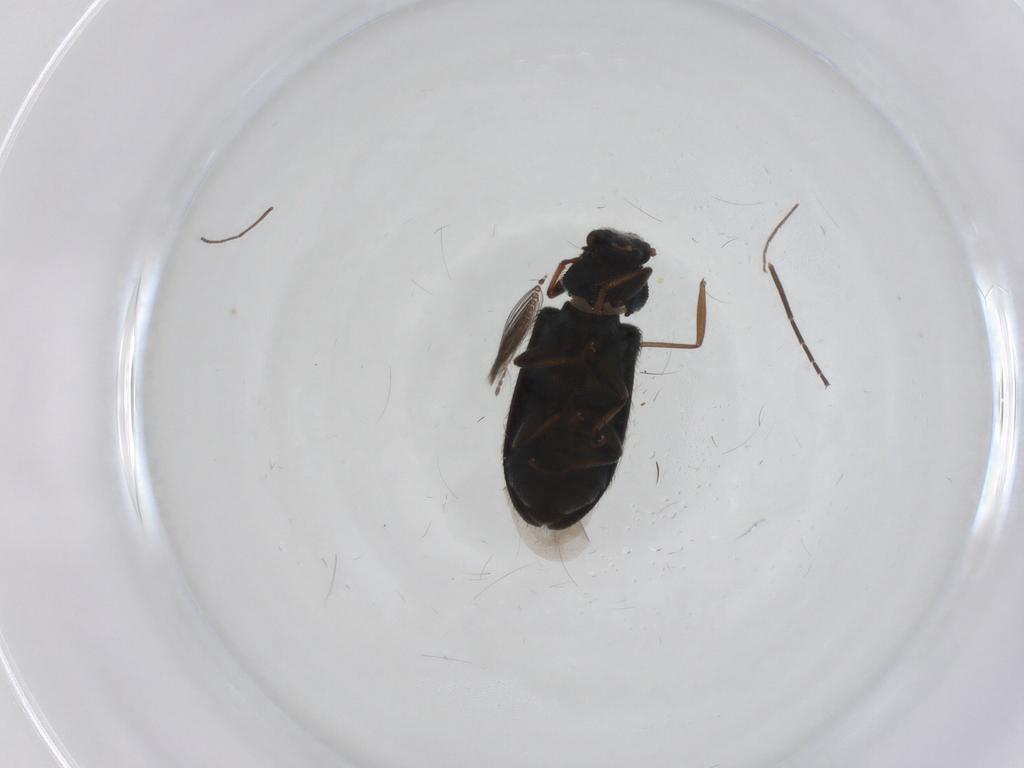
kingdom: Animalia
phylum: Arthropoda
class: Insecta
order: Coleoptera
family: Melyridae
